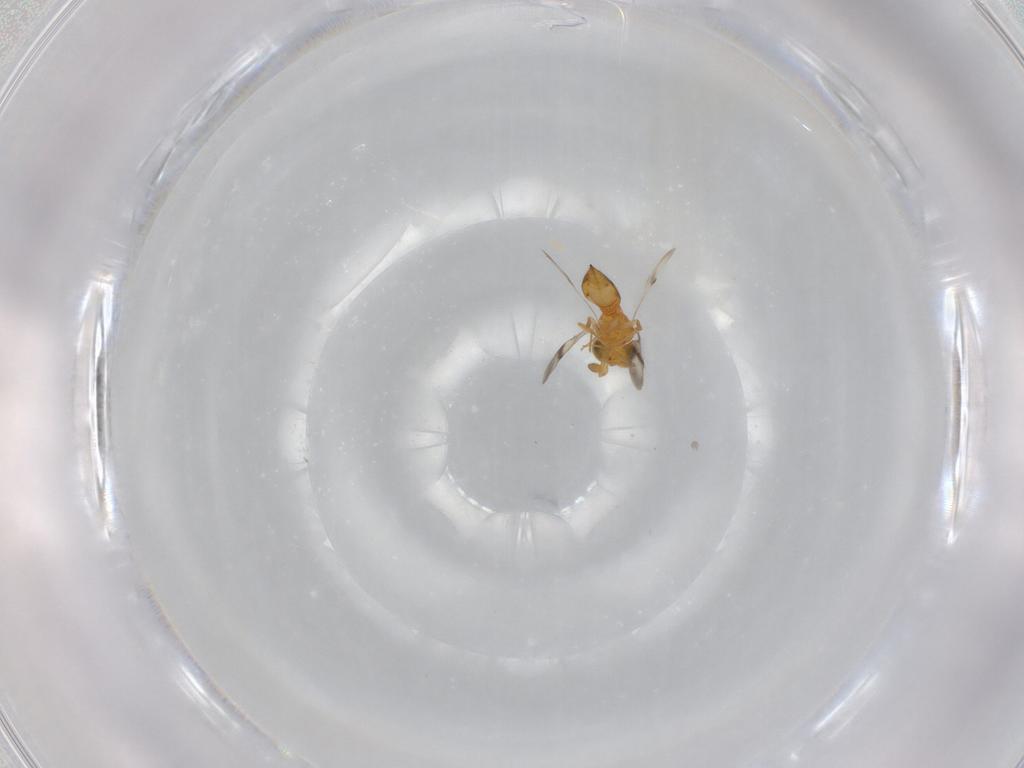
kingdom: Animalia
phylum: Arthropoda
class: Insecta
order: Hymenoptera
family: Scelionidae
